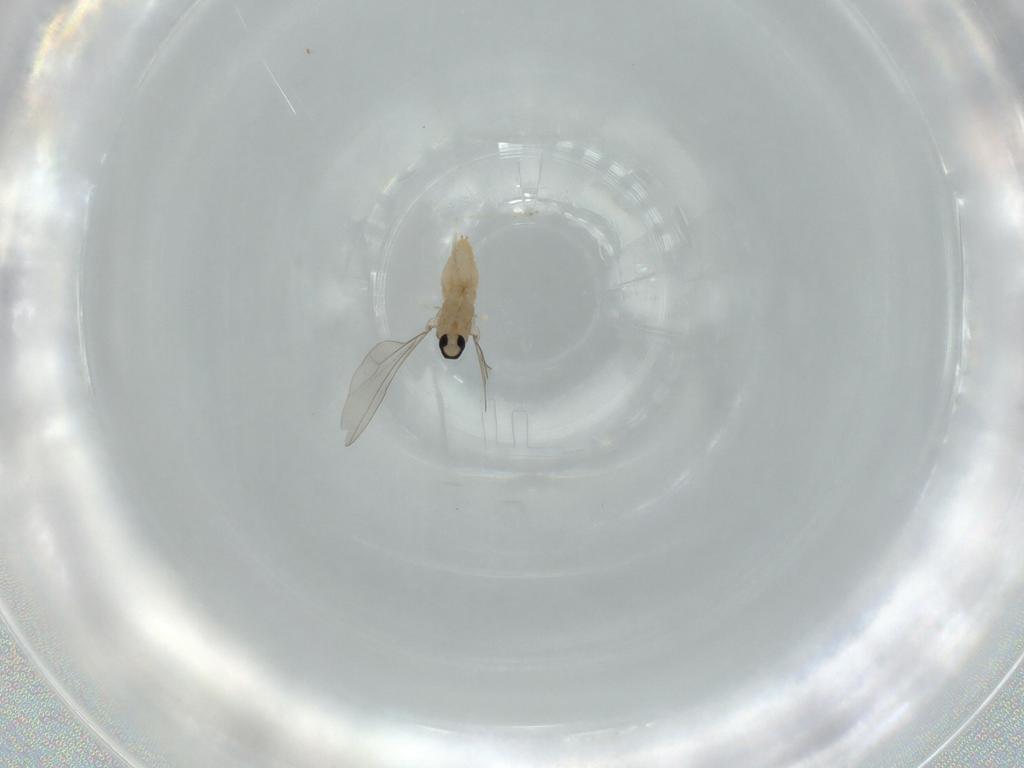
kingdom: Animalia
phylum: Arthropoda
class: Insecta
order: Diptera
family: Cecidomyiidae
